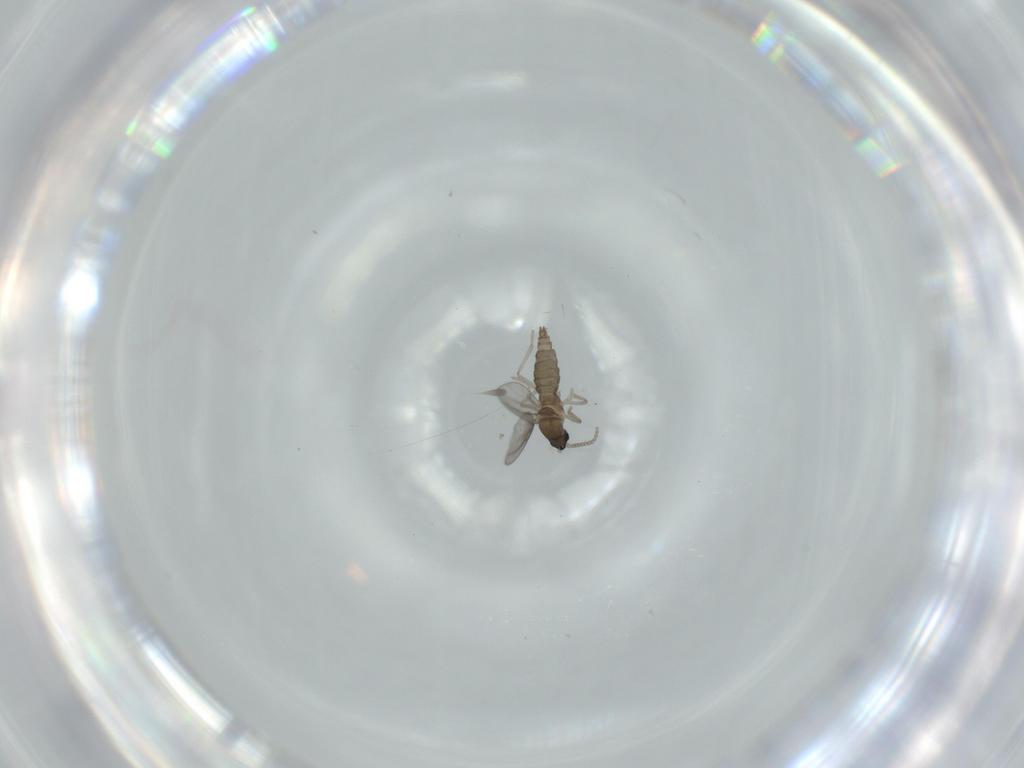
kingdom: Animalia
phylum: Arthropoda
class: Insecta
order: Diptera
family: Cecidomyiidae
